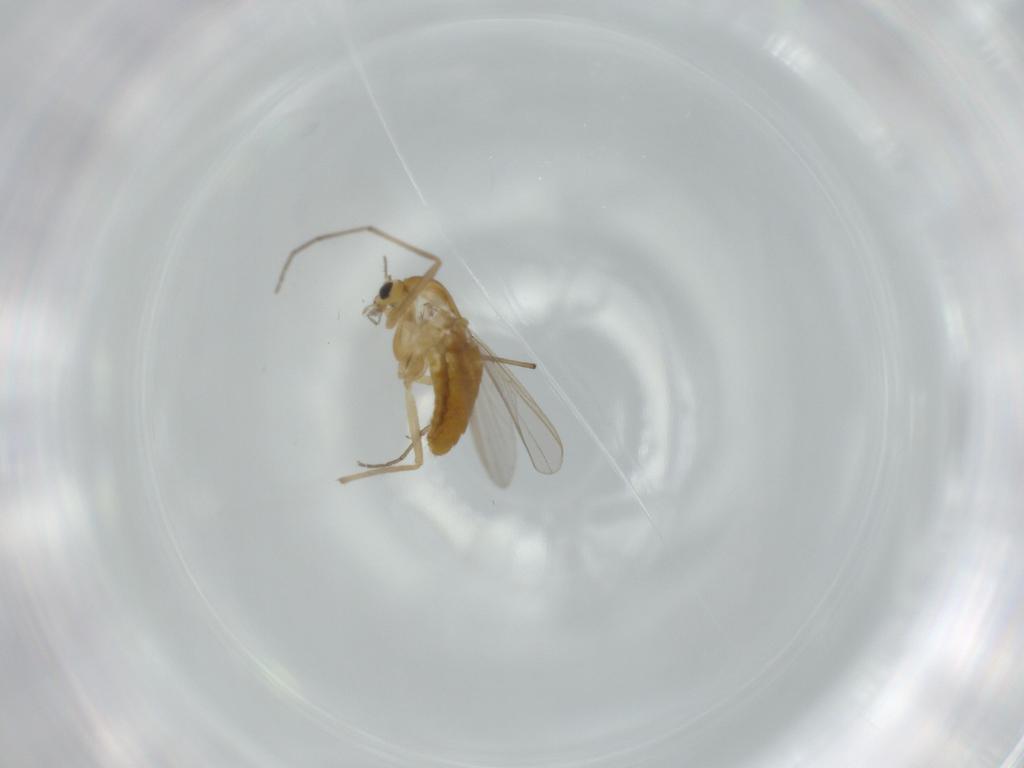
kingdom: Animalia
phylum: Arthropoda
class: Insecta
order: Diptera
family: Chironomidae
